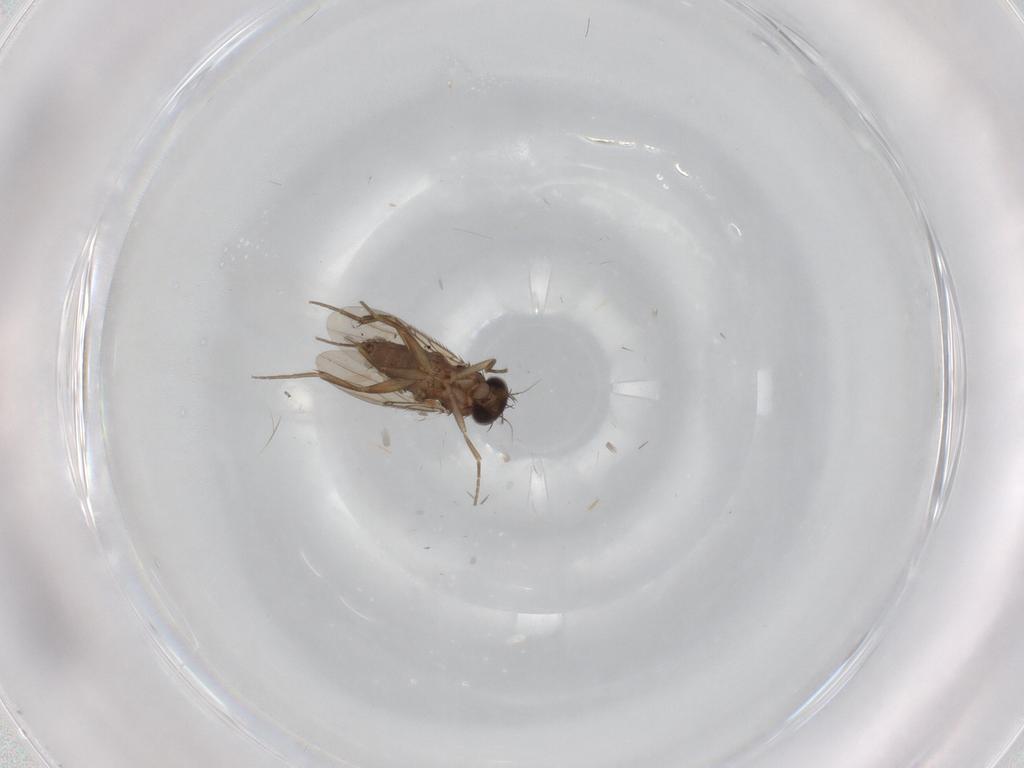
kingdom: Animalia
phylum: Arthropoda
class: Insecta
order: Diptera
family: Phoridae
